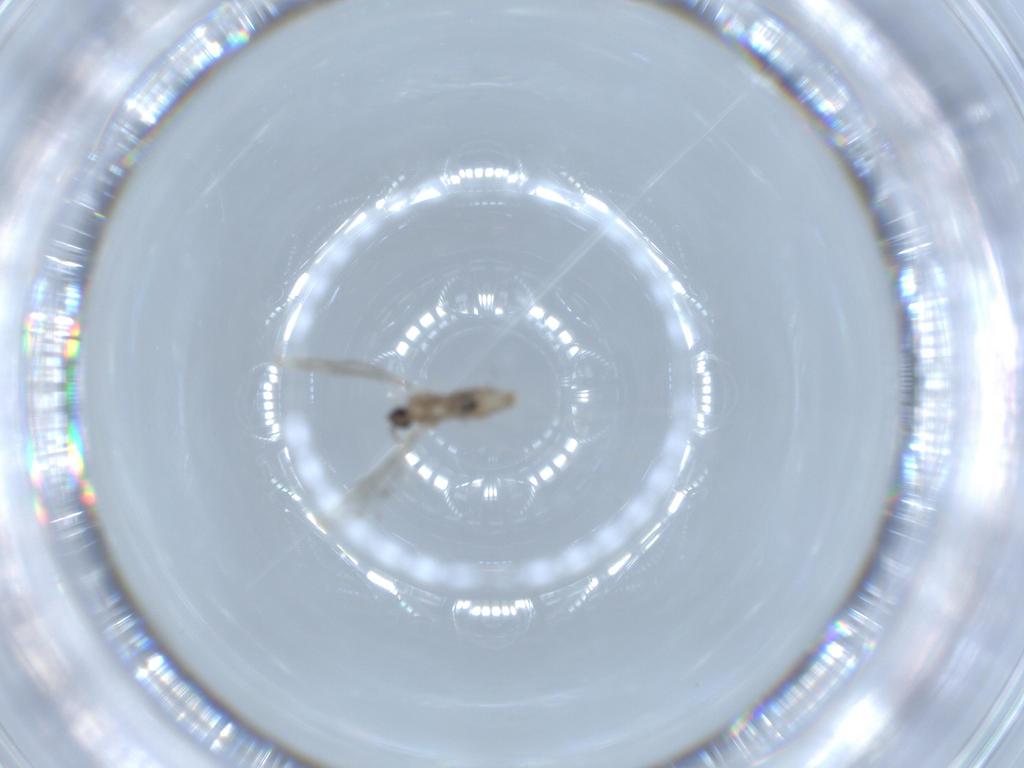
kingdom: Animalia
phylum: Arthropoda
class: Insecta
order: Diptera
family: Cecidomyiidae
